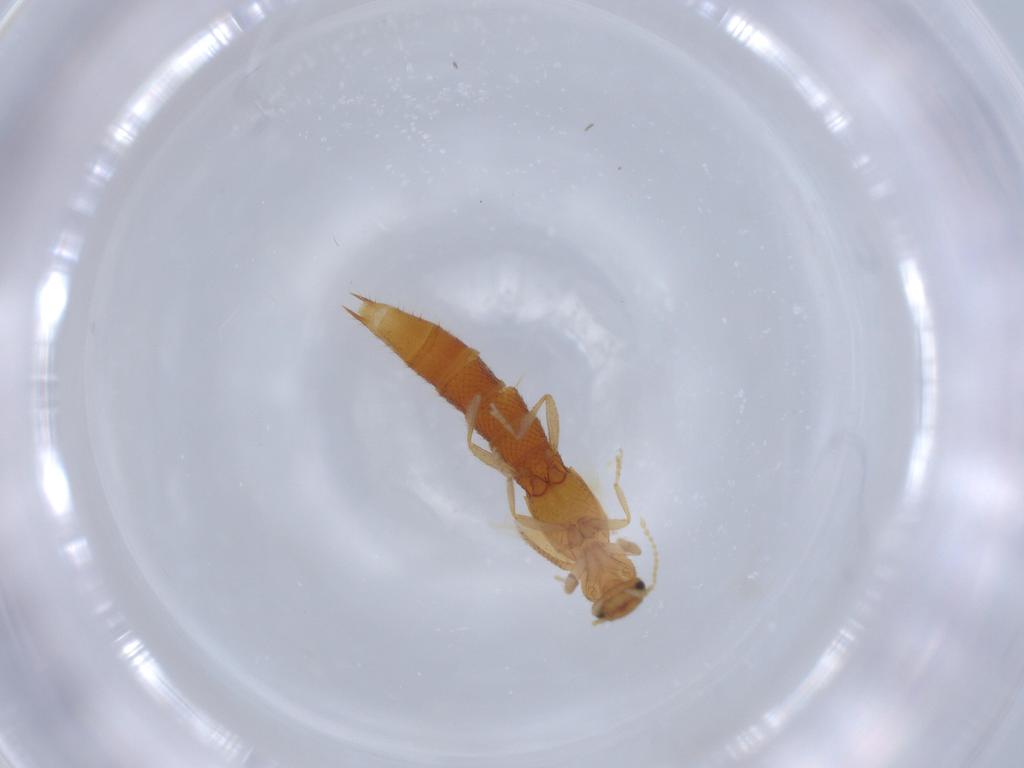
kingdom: Animalia
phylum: Arthropoda
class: Insecta
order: Coleoptera
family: Staphylinidae
